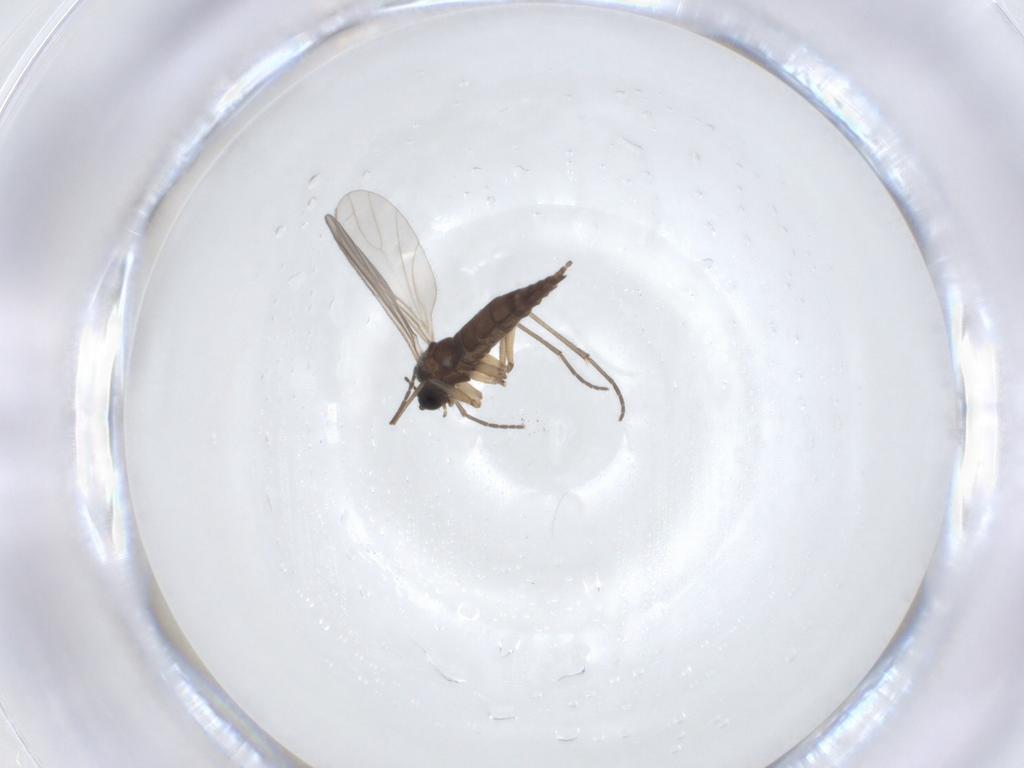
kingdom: Animalia
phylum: Arthropoda
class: Insecta
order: Diptera
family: Sciaridae
